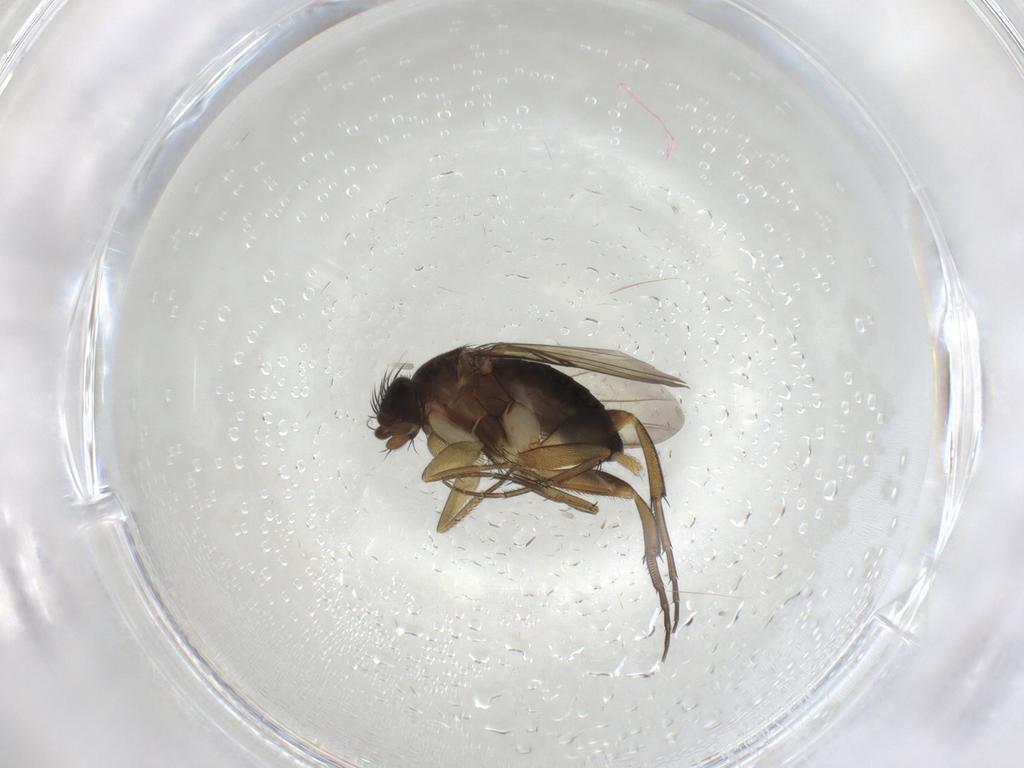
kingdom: Animalia
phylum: Arthropoda
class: Insecta
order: Diptera
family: Phoridae
